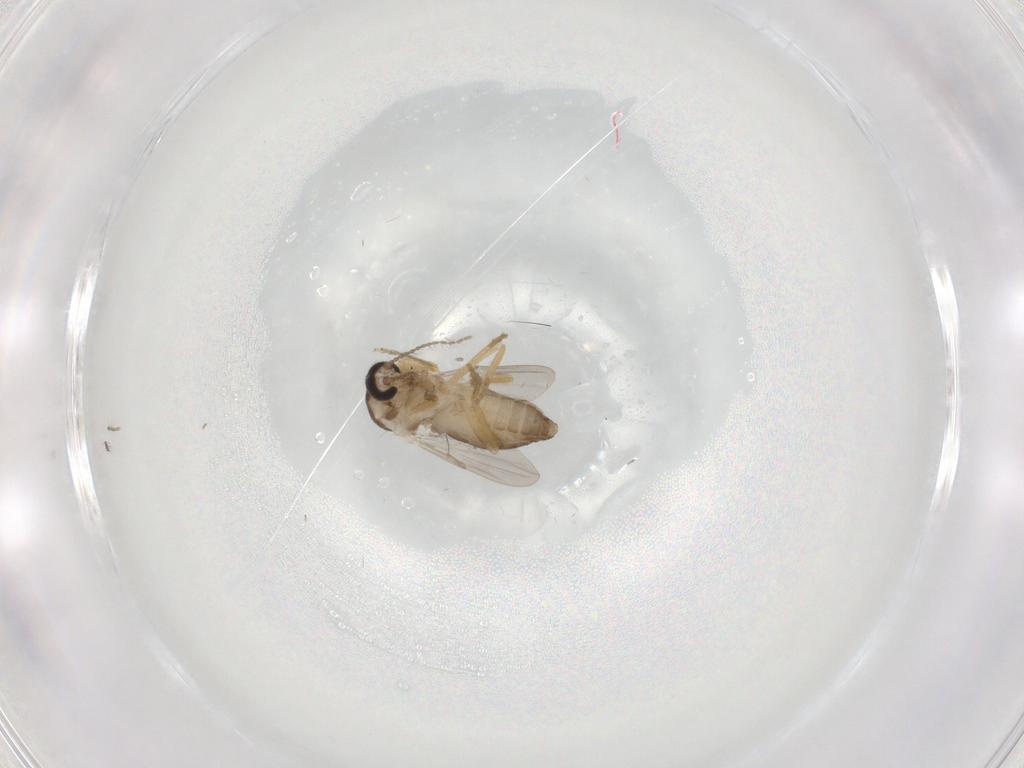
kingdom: Animalia
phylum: Arthropoda
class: Insecta
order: Diptera
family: Ceratopogonidae
